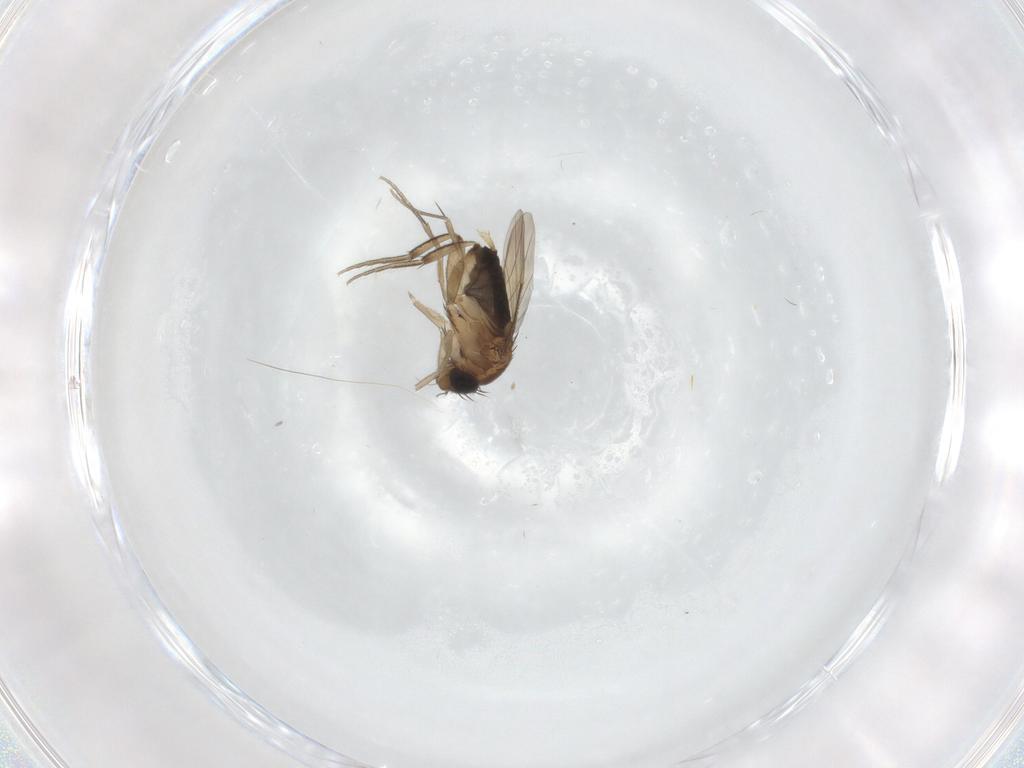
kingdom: Animalia
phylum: Arthropoda
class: Insecta
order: Diptera
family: Cecidomyiidae
